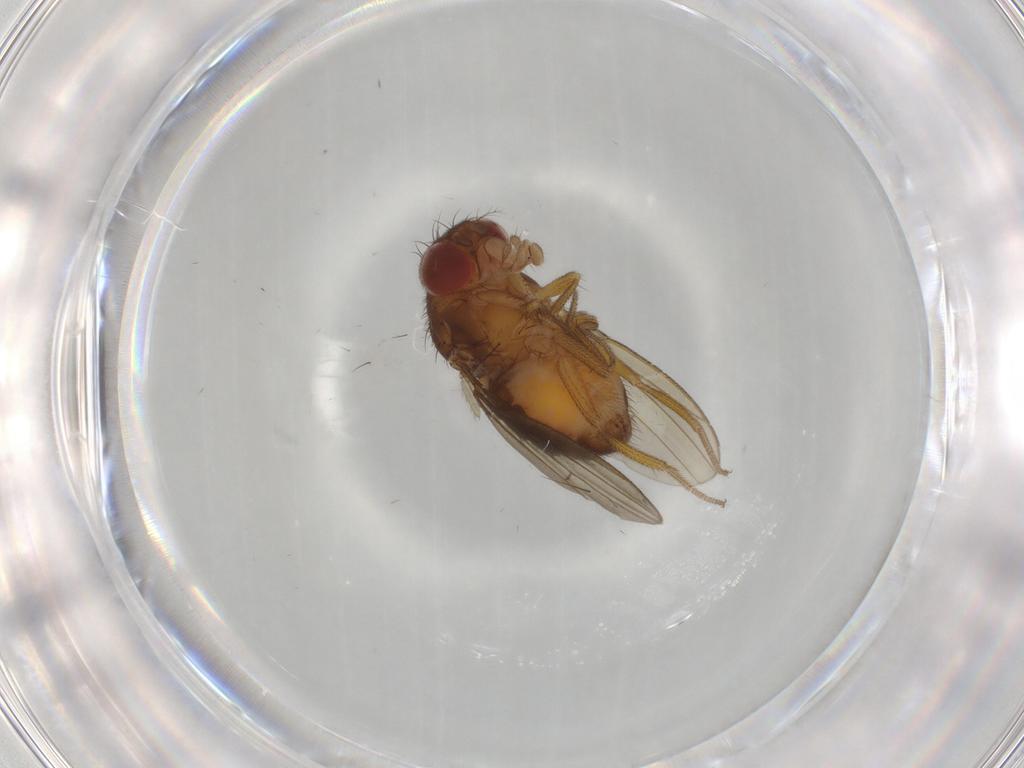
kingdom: Animalia
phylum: Arthropoda
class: Insecta
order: Diptera
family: Drosophilidae
